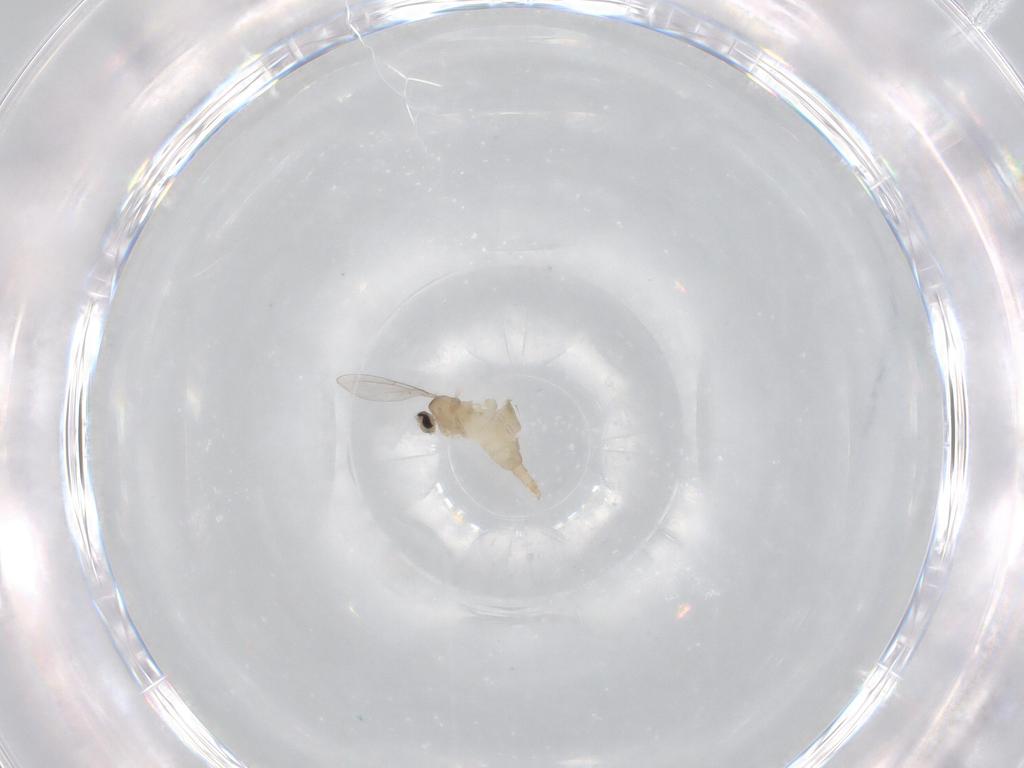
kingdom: Animalia
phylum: Arthropoda
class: Insecta
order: Diptera
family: Cecidomyiidae
